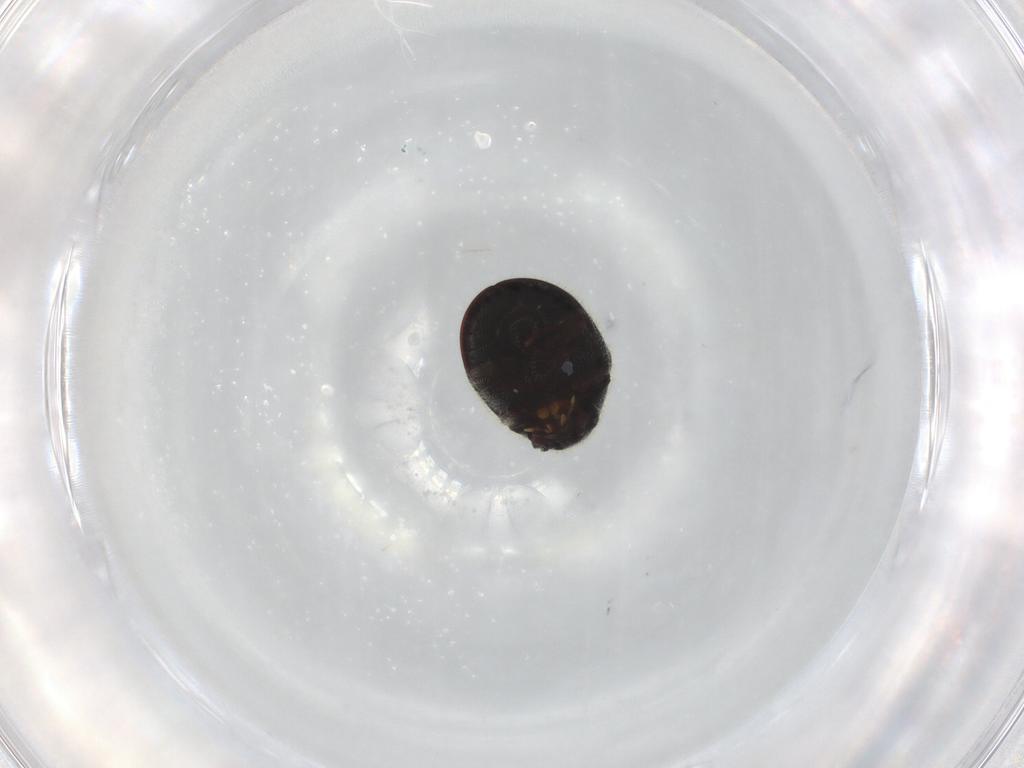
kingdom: Animalia
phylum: Arthropoda
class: Insecta
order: Coleoptera
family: Ptinidae
